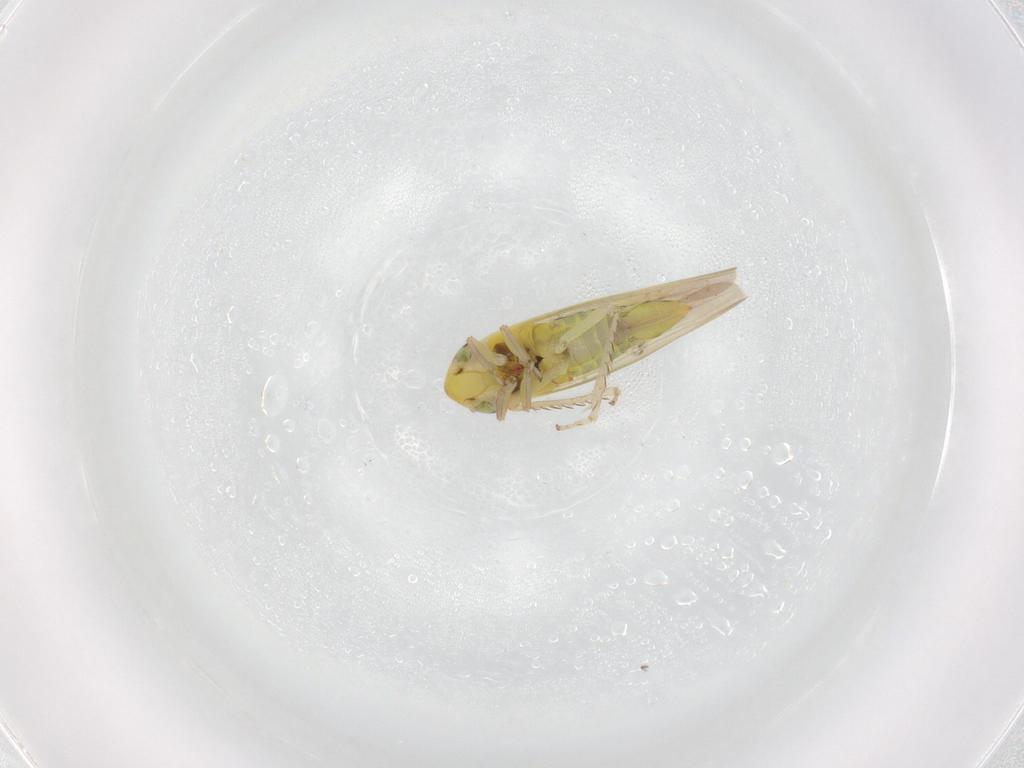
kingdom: Animalia
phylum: Arthropoda
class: Insecta
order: Hemiptera
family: Cicadellidae
